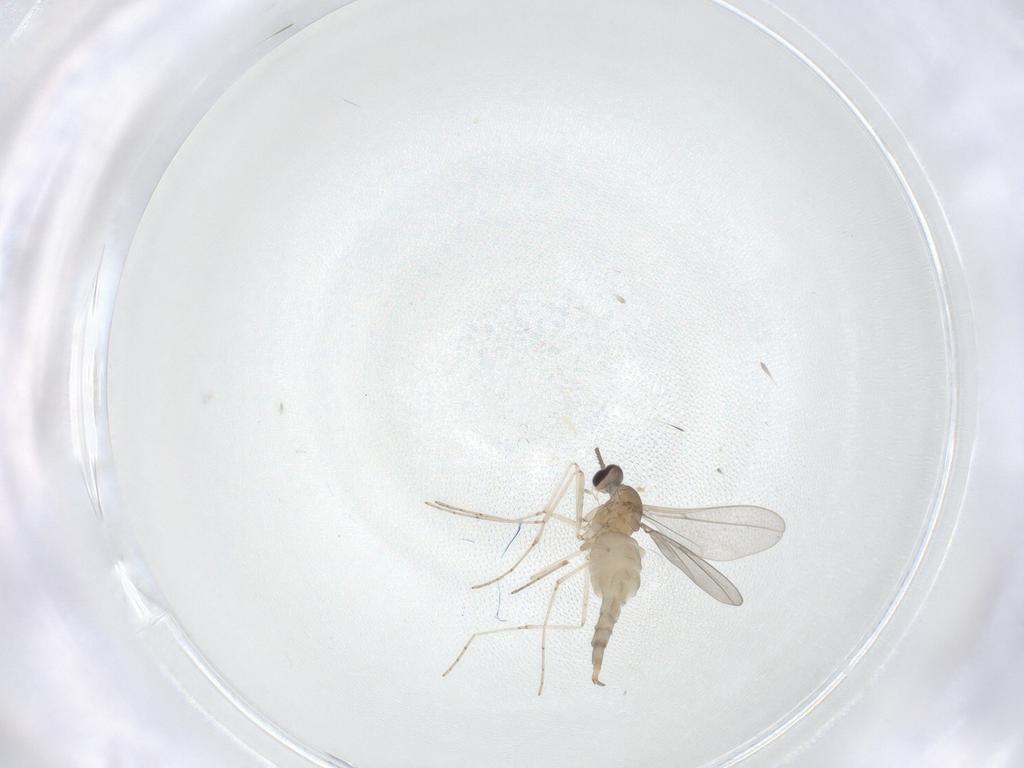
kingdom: Animalia
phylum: Arthropoda
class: Insecta
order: Diptera
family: Cecidomyiidae
